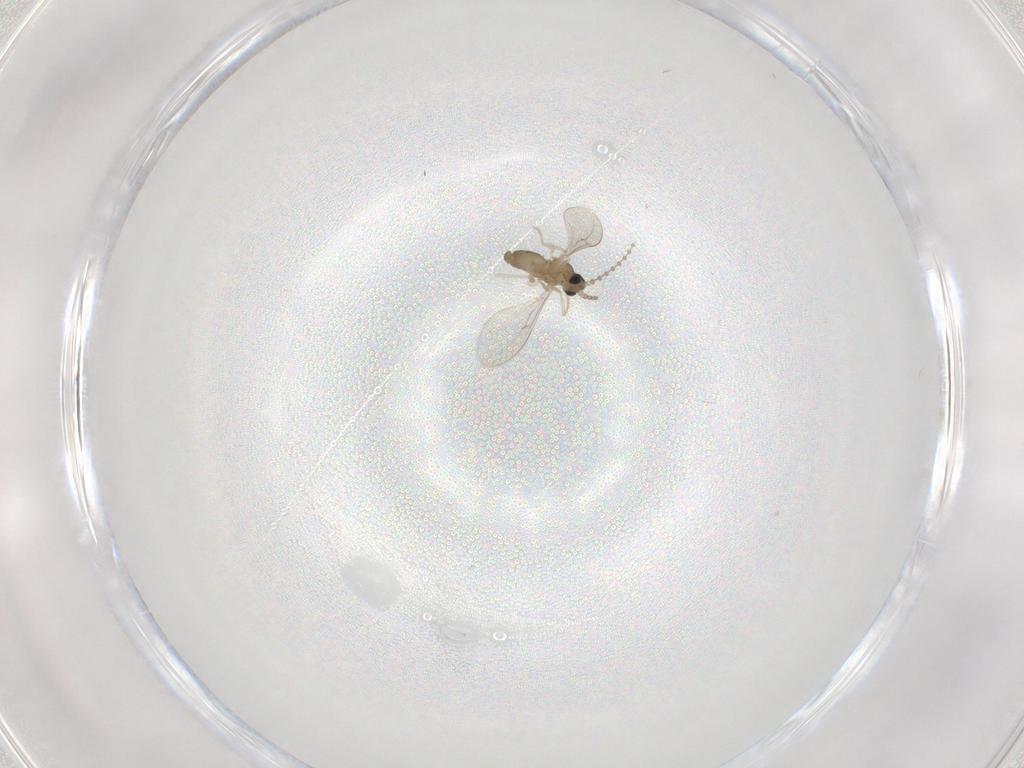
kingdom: Animalia
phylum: Arthropoda
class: Insecta
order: Diptera
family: Cecidomyiidae
